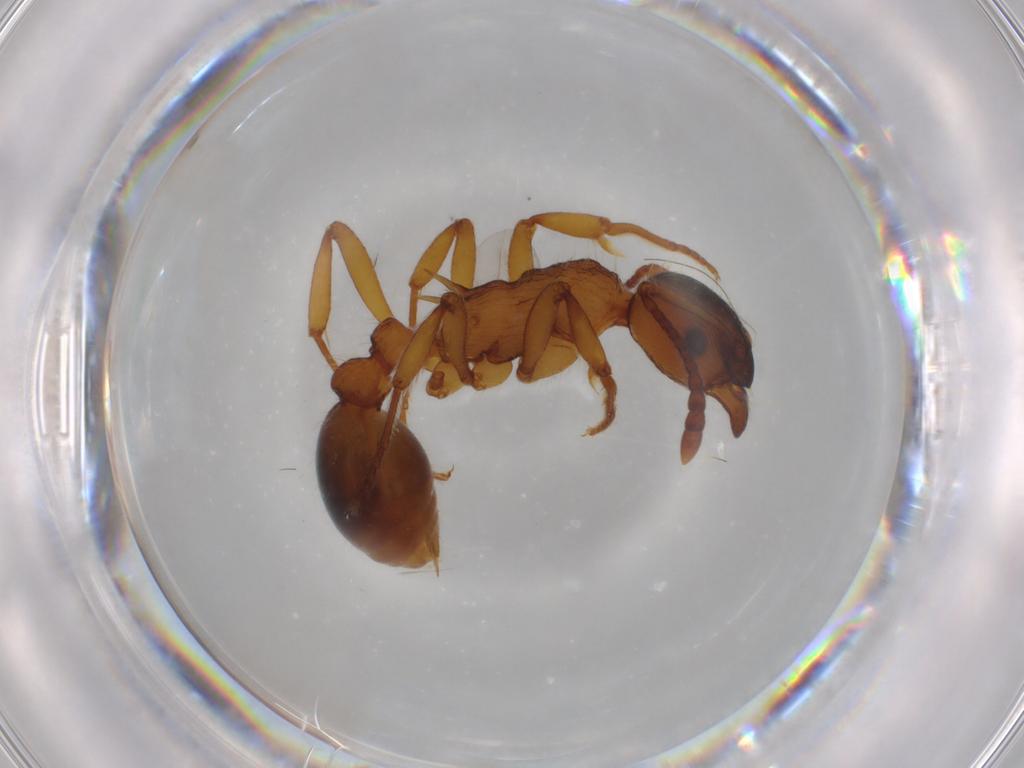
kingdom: Animalia
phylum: Arthropoda
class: Insecta
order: Hymenoptera
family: Formicidae
